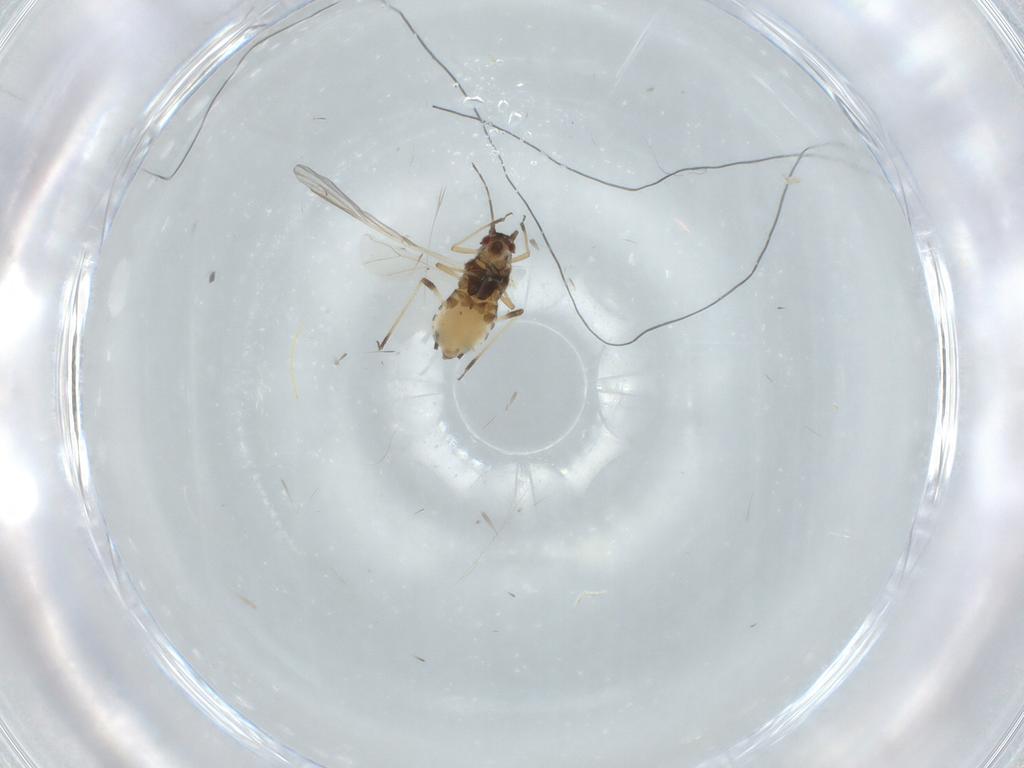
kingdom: Animalia
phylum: Arthropoda
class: Insecta
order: Hemiptera
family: Aphididae
